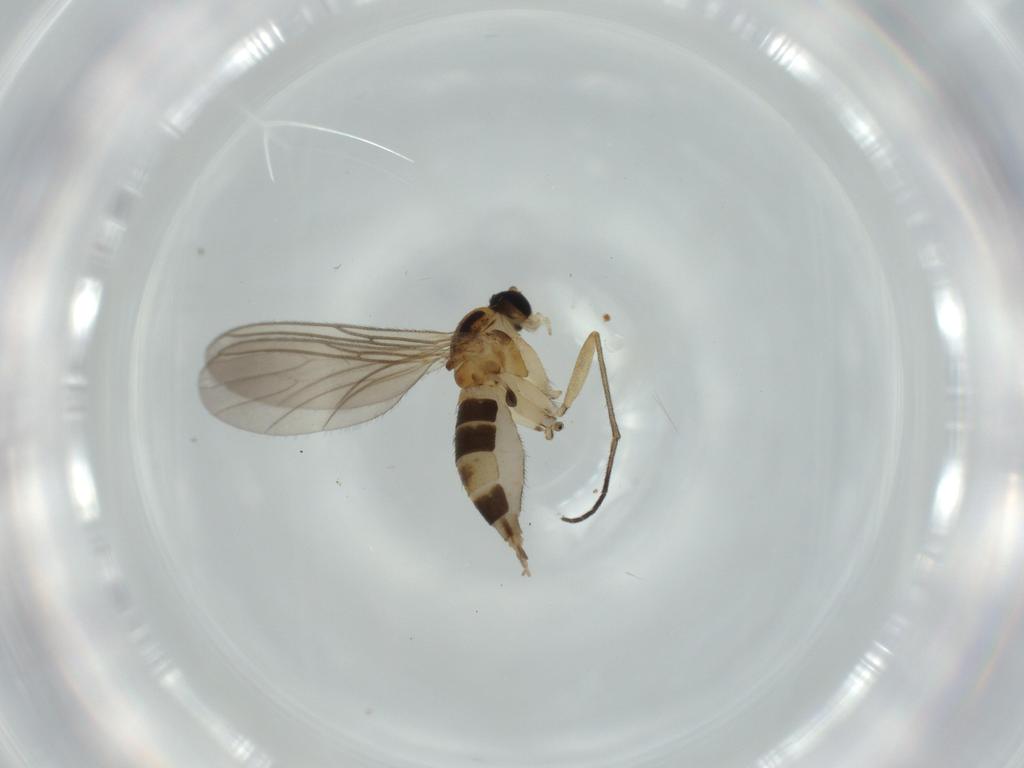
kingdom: Animalia
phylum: Arthropoda
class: Insecta
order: Diptera
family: Sciaridae
